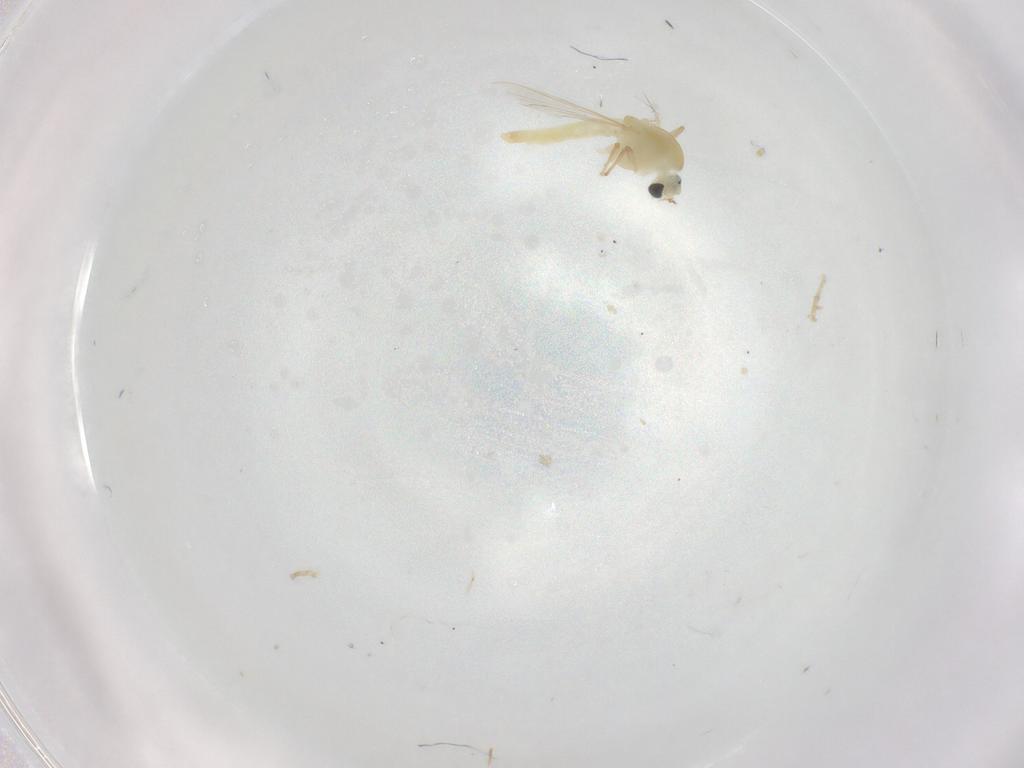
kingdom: Animalia
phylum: Arthropoda
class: Insecta
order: Diptera
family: Chironomidae
